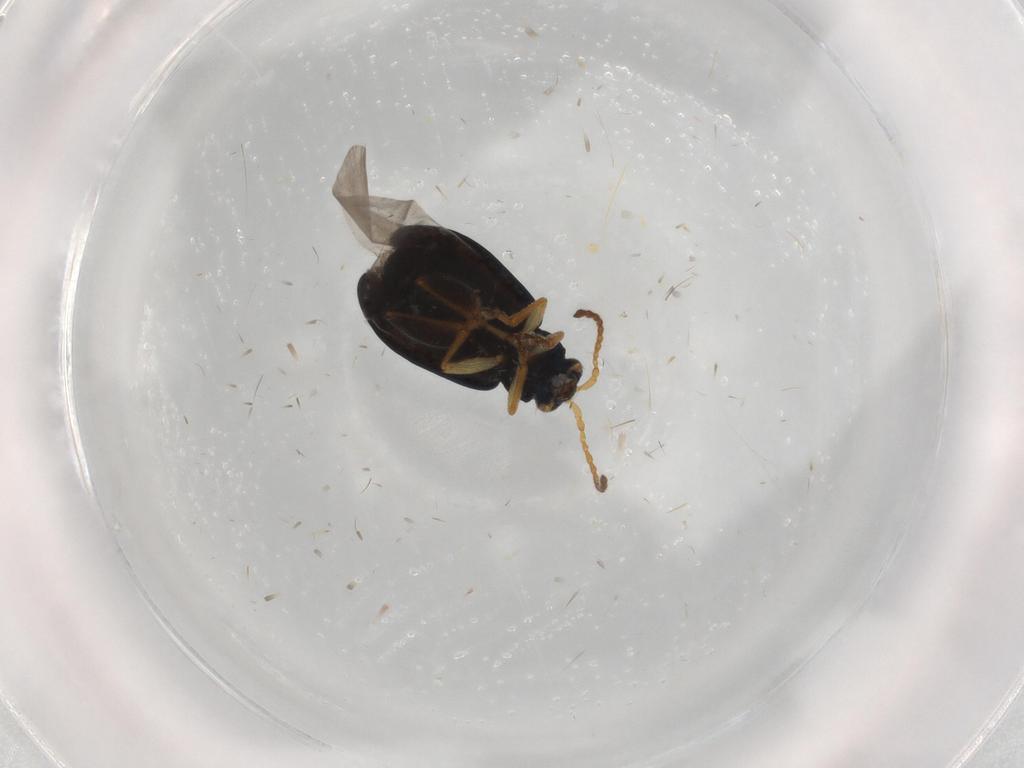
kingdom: Animalia
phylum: Arthropoda
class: Insecta
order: Coleoptera
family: Chrysomelidae
